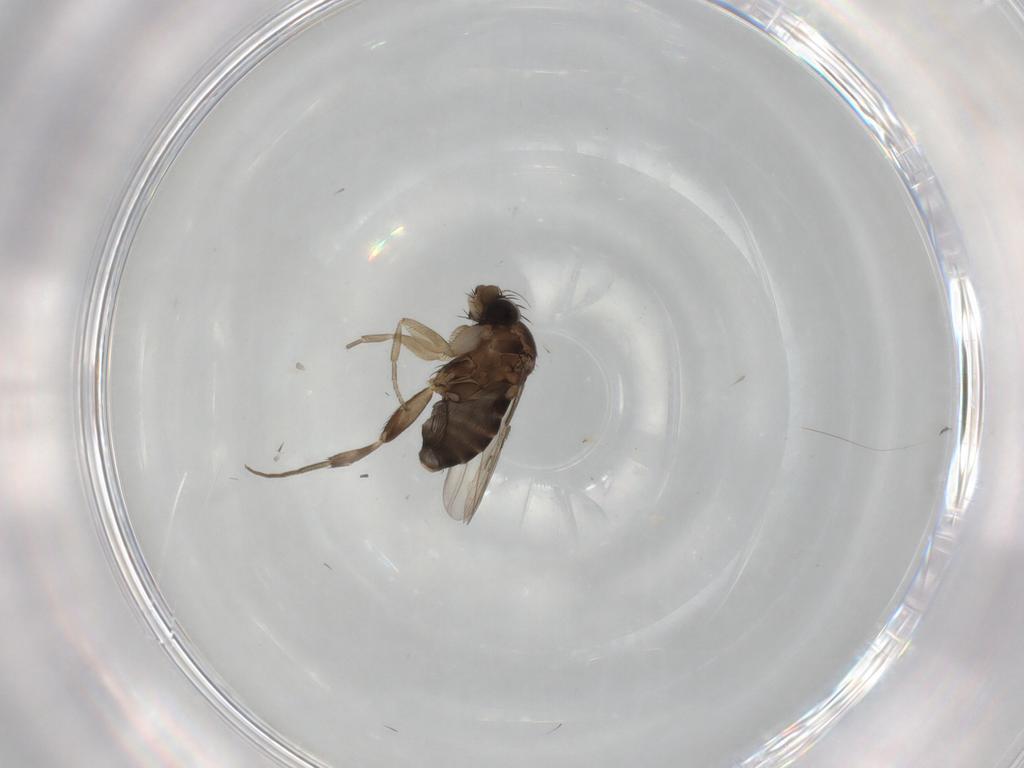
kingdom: Animalia
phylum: Arthropoda
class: Insecta
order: Diptera
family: Phoridae
